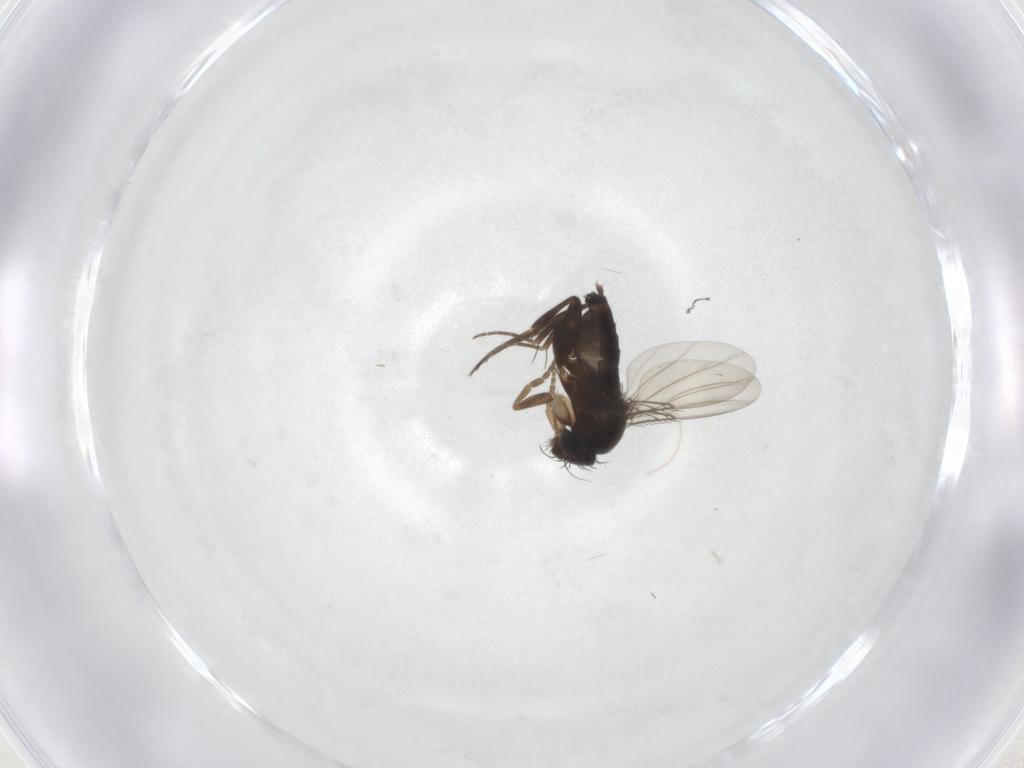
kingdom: Animalia
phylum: Arthropoda
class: Insecta
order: Diptera
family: Phoridae
